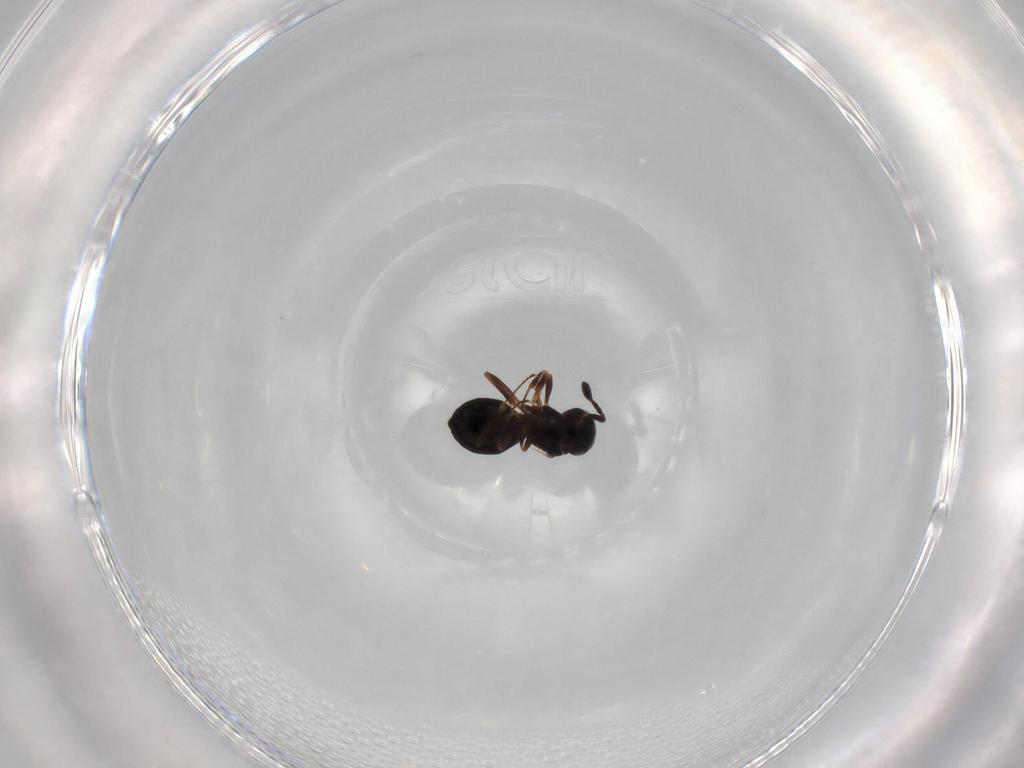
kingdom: Animalia
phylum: Arthropoda
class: Insecta
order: Hymenoptera
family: Scelionidae
